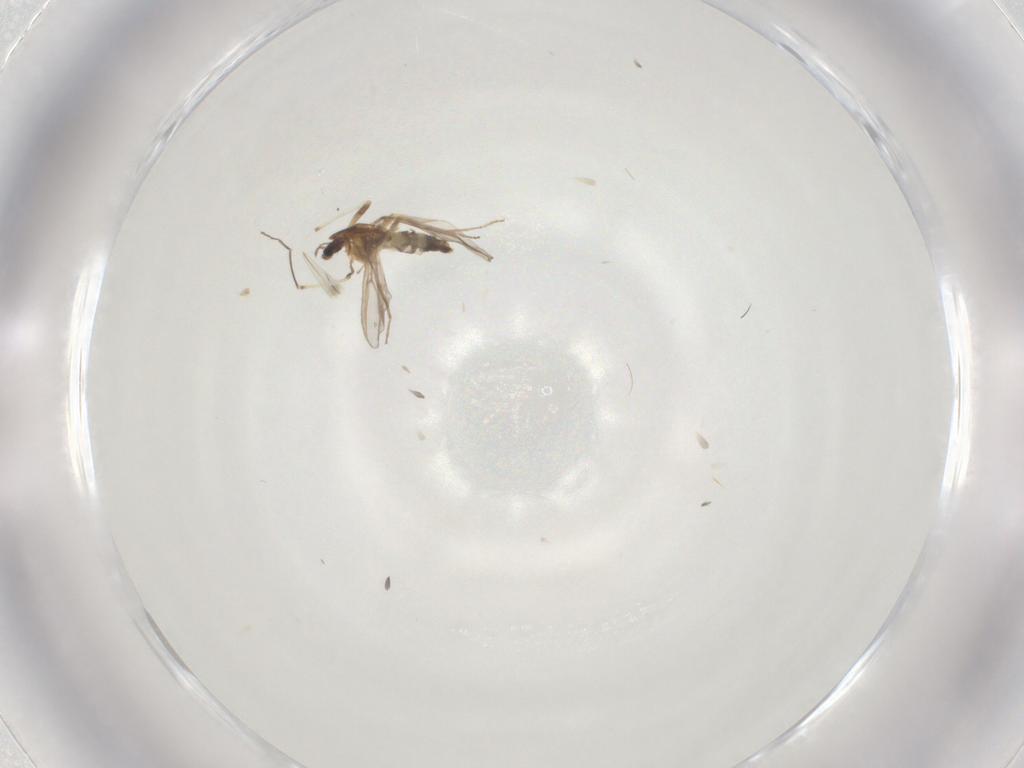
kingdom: Animalia
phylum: Arthropoda
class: Insecta
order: Diptera
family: Chironomidae
